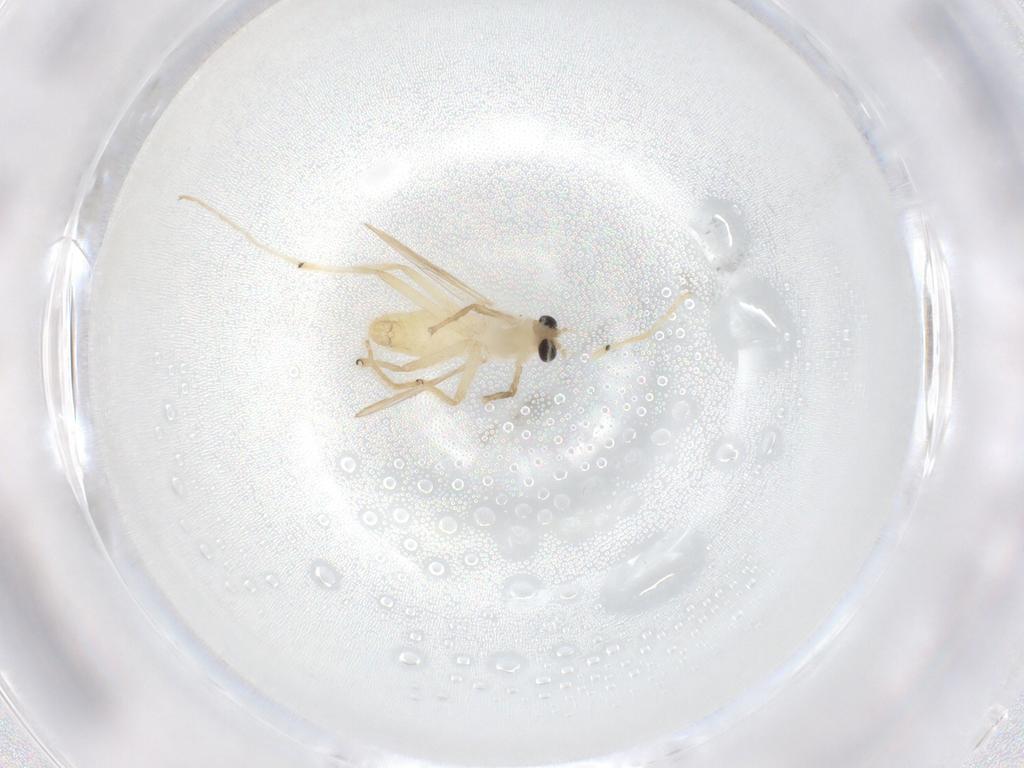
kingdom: Animalia
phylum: Arthropoda
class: Insecta
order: Diptera
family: Chironomidae
